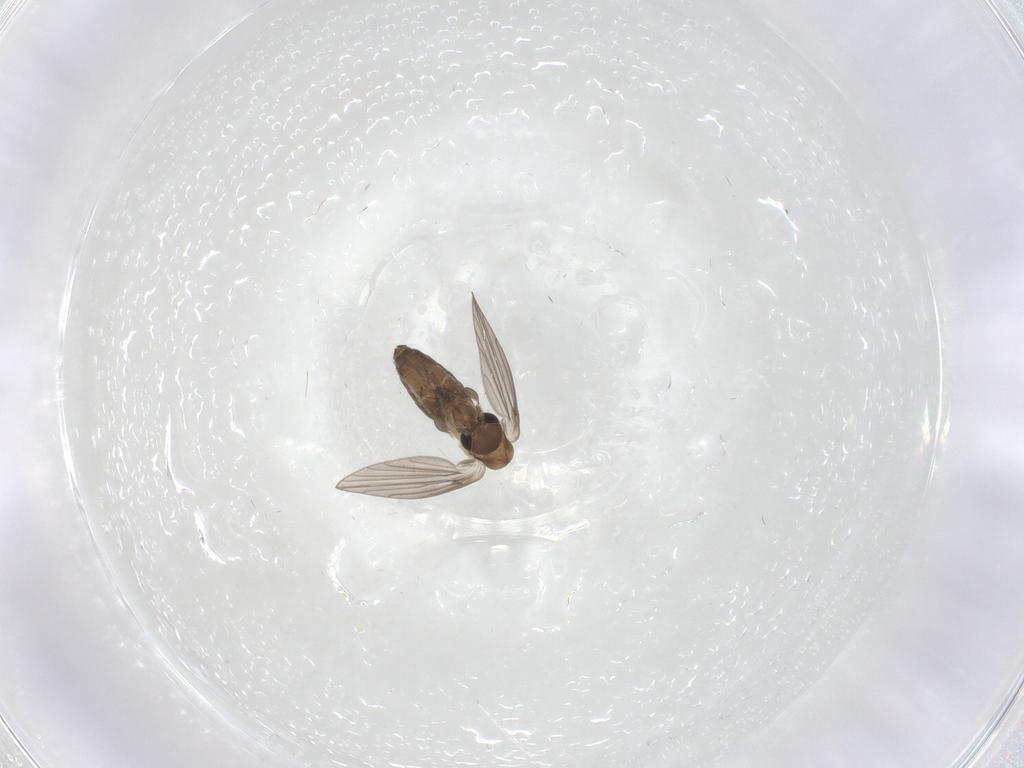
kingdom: Animalia
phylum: Arthropoda
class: Insecta
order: Diptera
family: Psychodidae
